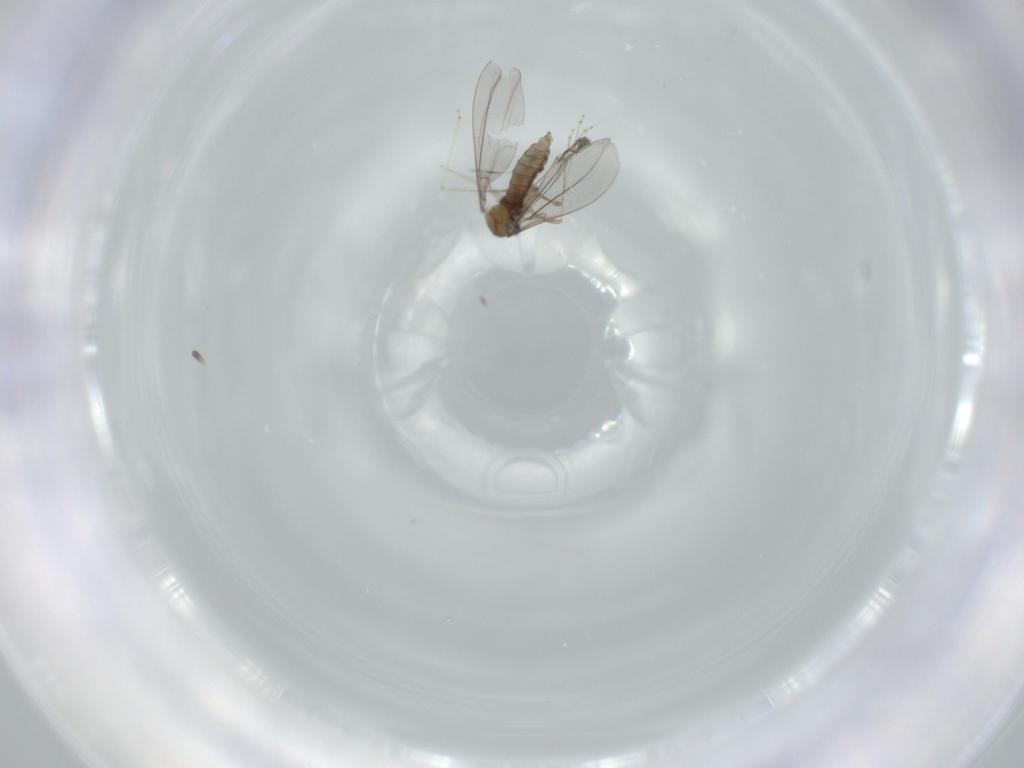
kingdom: Animalia
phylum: Arthropoda
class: Insecta
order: Diptera
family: Cecidomyiidae
